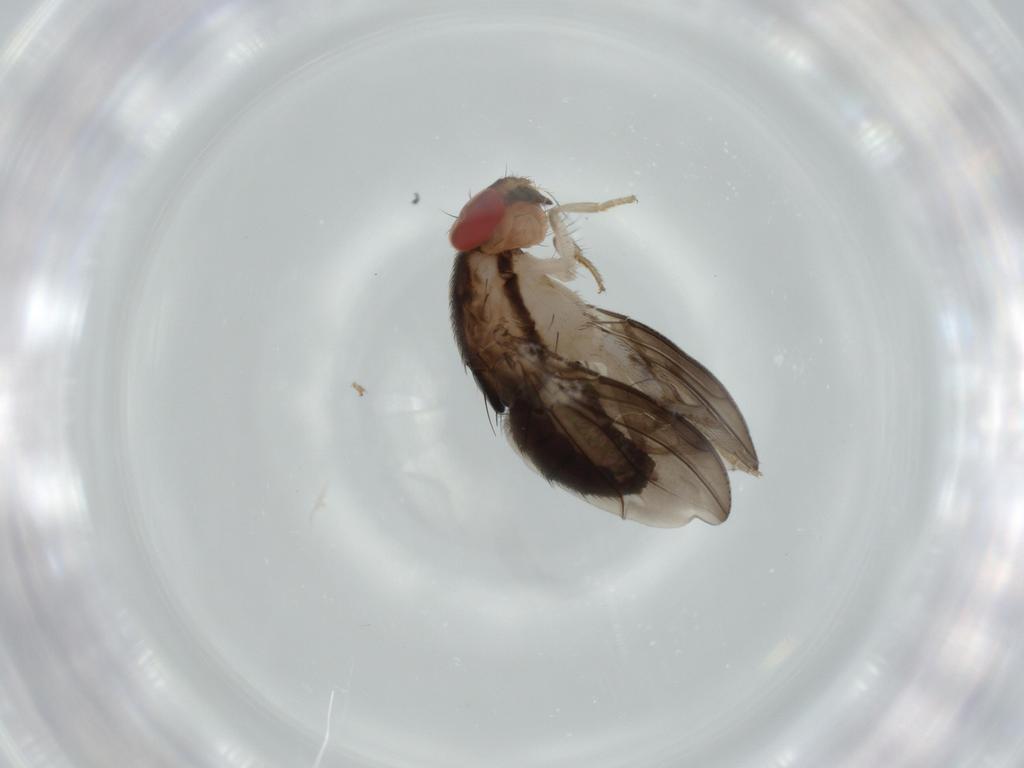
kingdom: Animalia
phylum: Arthropoda
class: Insecta
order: Diptera
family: Drosophilidae
